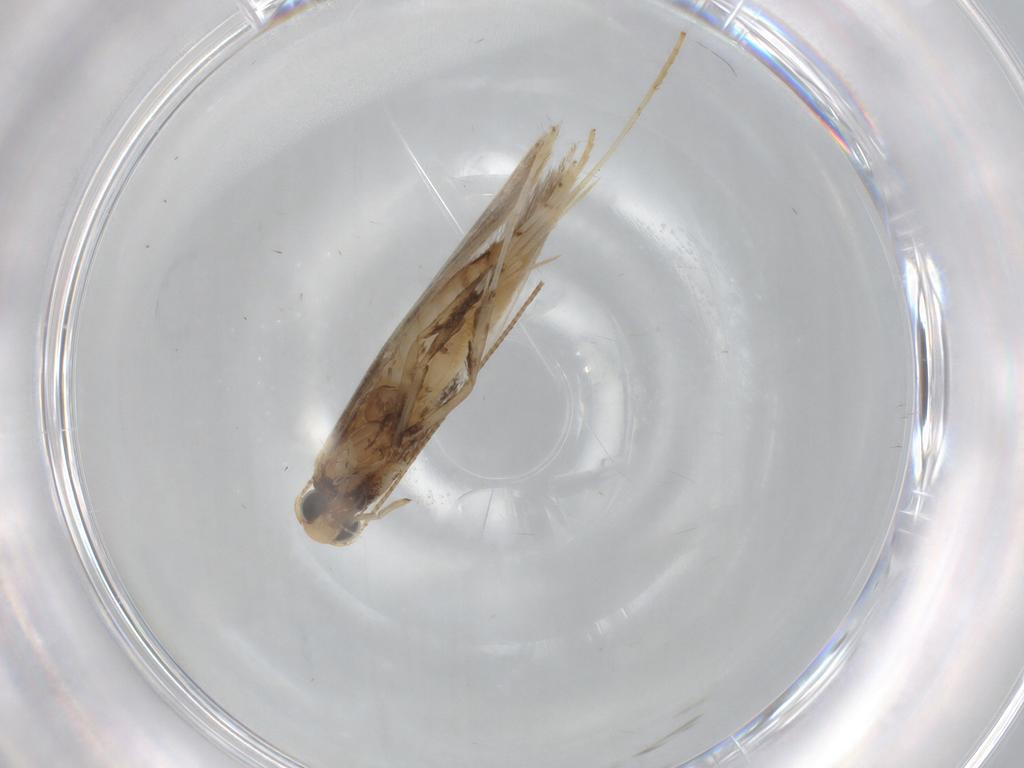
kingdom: Animalia
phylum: Arthropoda
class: Insecta
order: Lepidoptera
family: Gracillariidae
